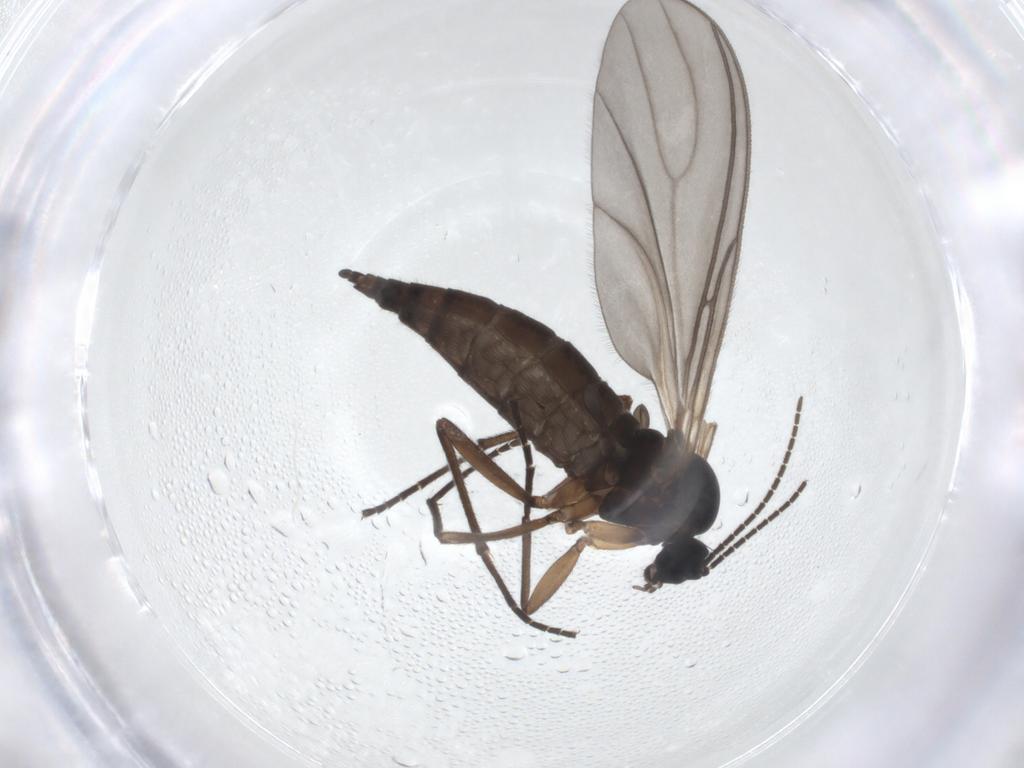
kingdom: Animalia
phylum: Arthropoda
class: Insecta
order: Diptera
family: Sciaridae
